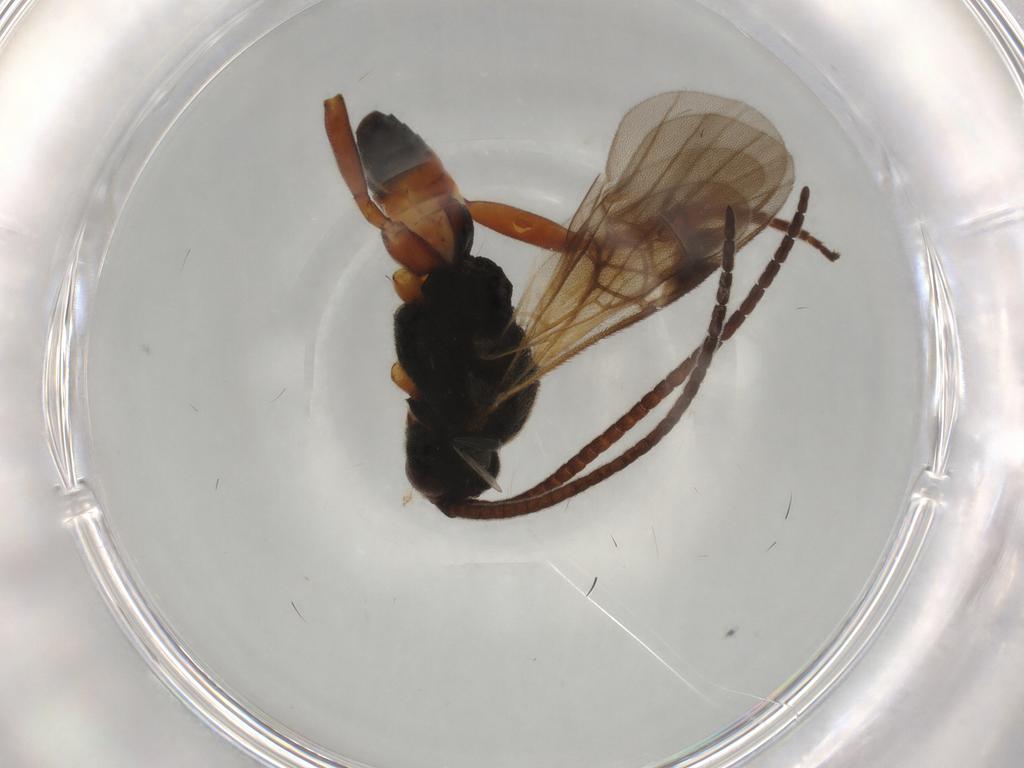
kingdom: Animalia
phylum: Arthropoda
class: Insecta
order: Hymenoptera
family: Braconidae
